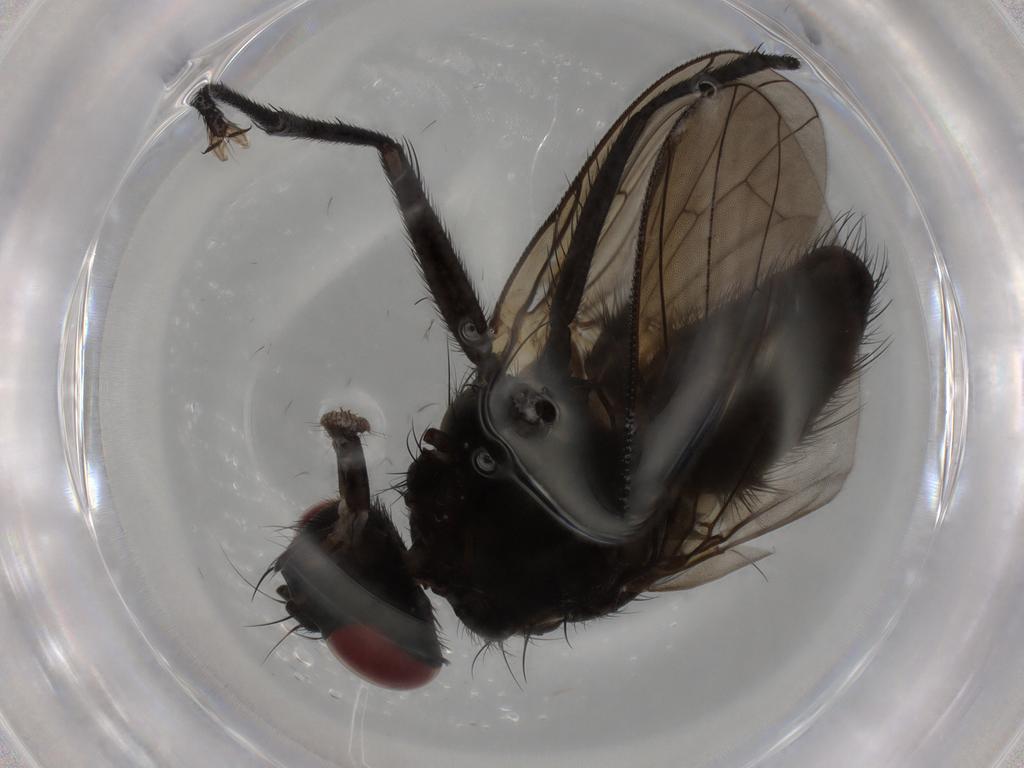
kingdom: Animalia
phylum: Arthropoda
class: Insecta
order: Diptera
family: Muscidae
